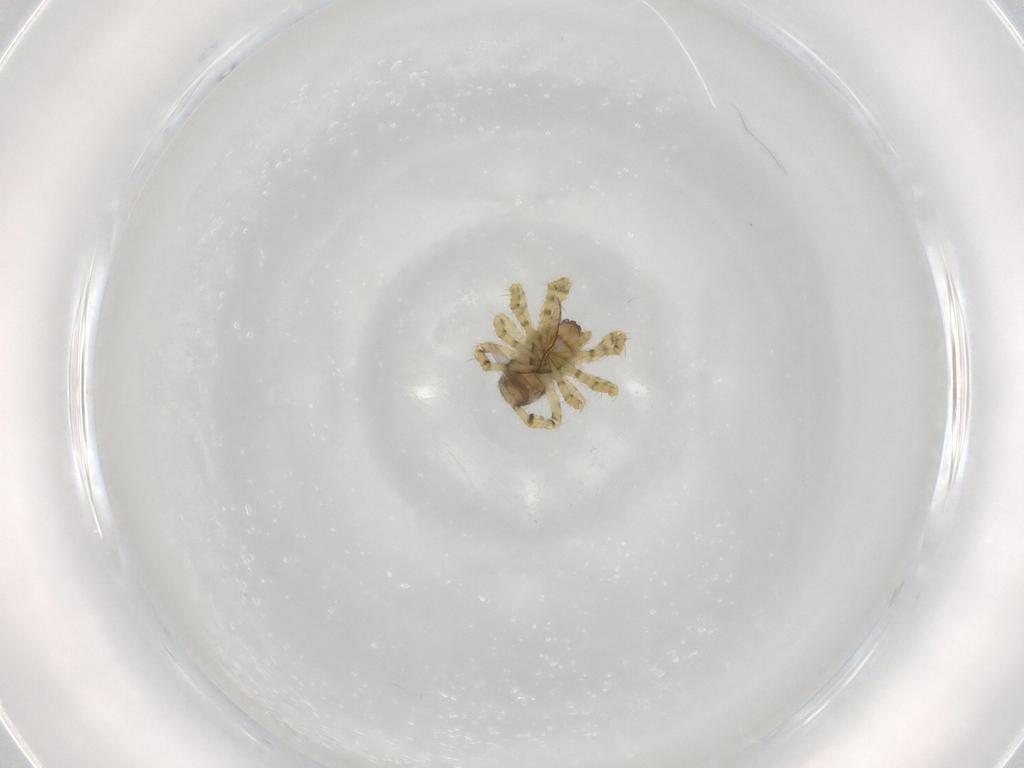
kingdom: Animalia
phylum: Arthropoda
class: Arachnida
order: Araneae
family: Theridiidae
